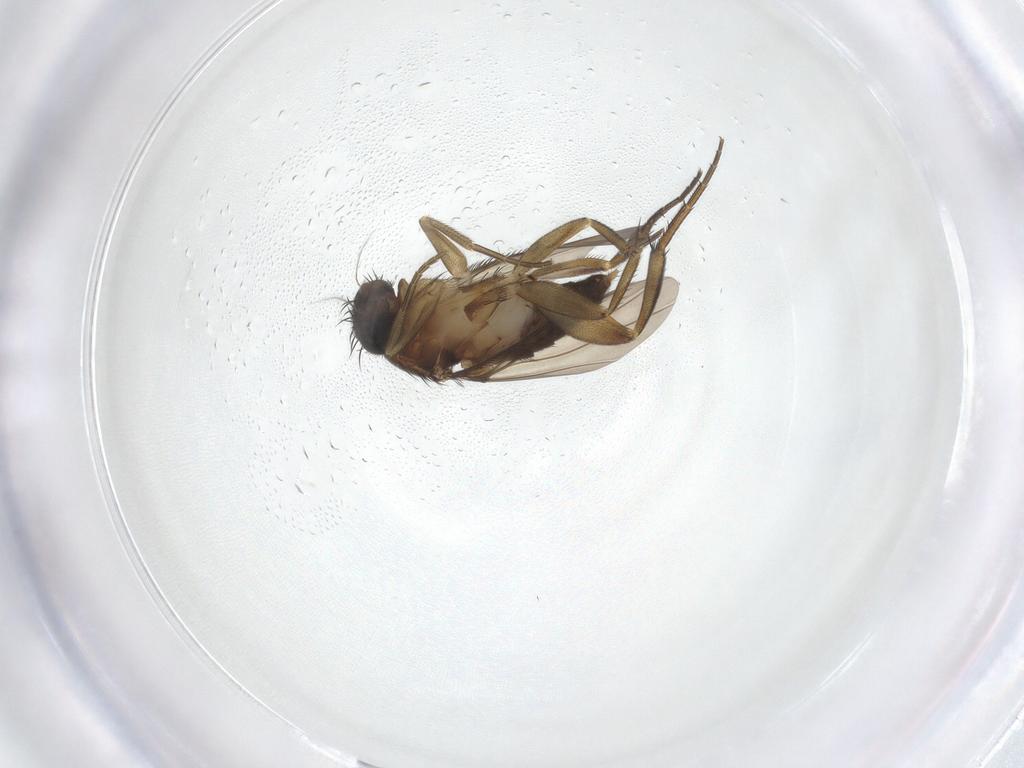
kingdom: Animalia
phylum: Arthropoda
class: Insecta
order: Diptera
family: Phoridae
